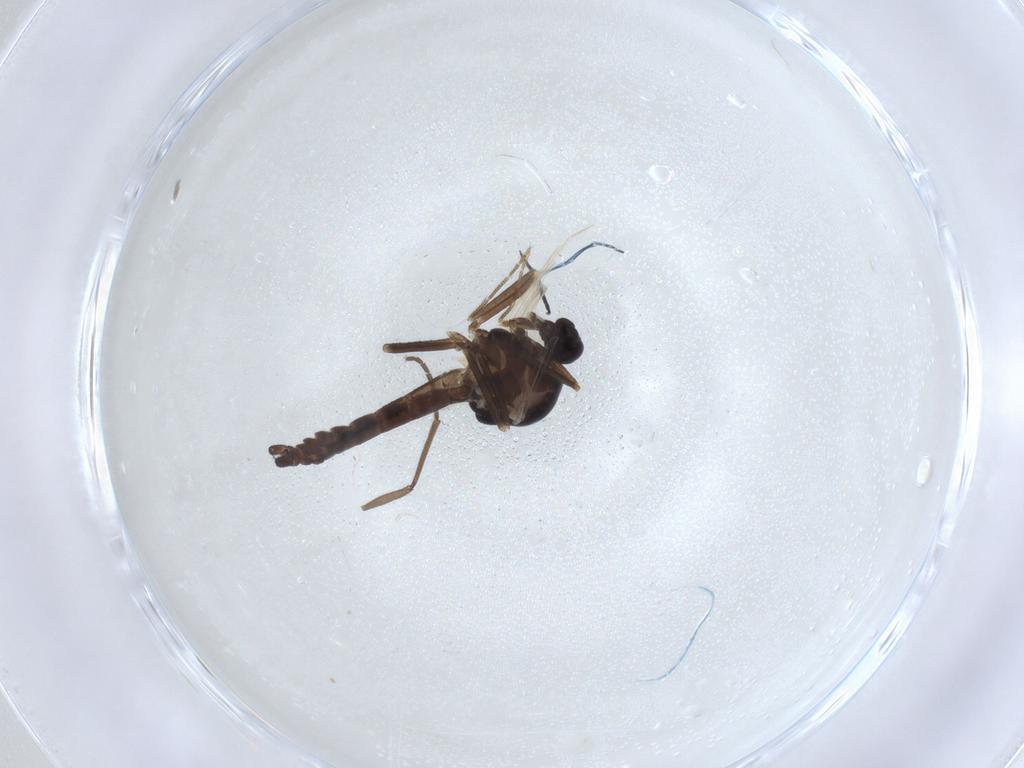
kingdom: Animalia
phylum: Arthropoda
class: Insecta
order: Diptera
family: Ceratopogonidae
